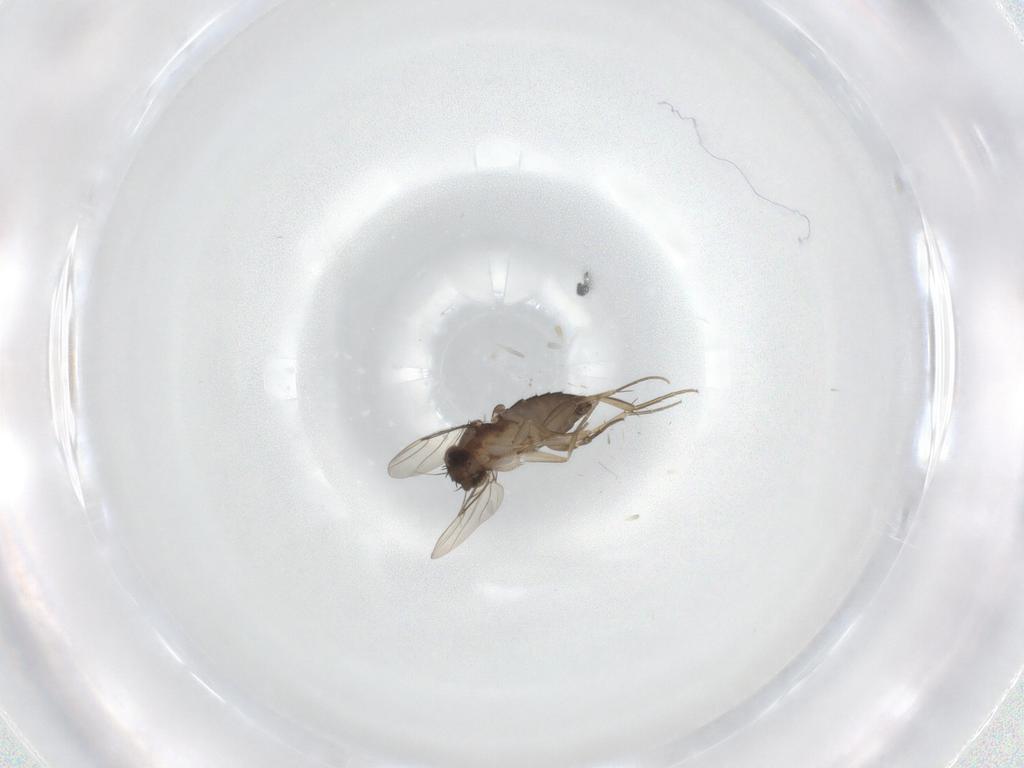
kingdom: Animalia
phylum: Arthropoda
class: Insecta
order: Diptera
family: Phoridae
